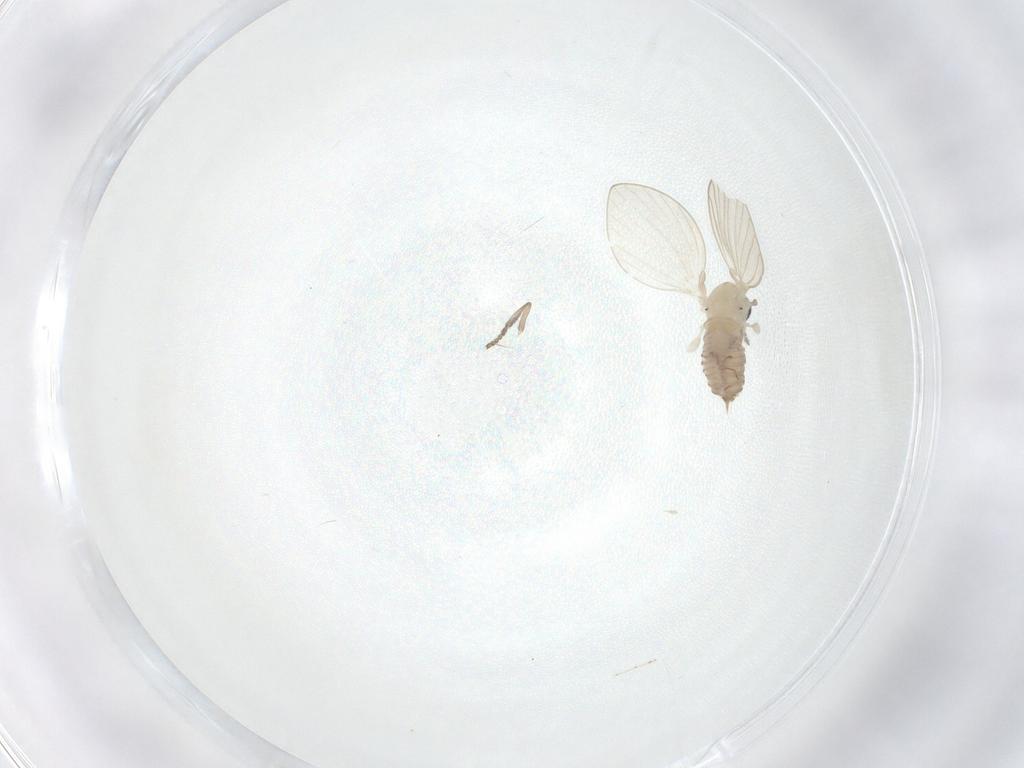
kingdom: Animalia
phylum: Arthropoda
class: Insecta
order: Diptera
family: Psychodidae
